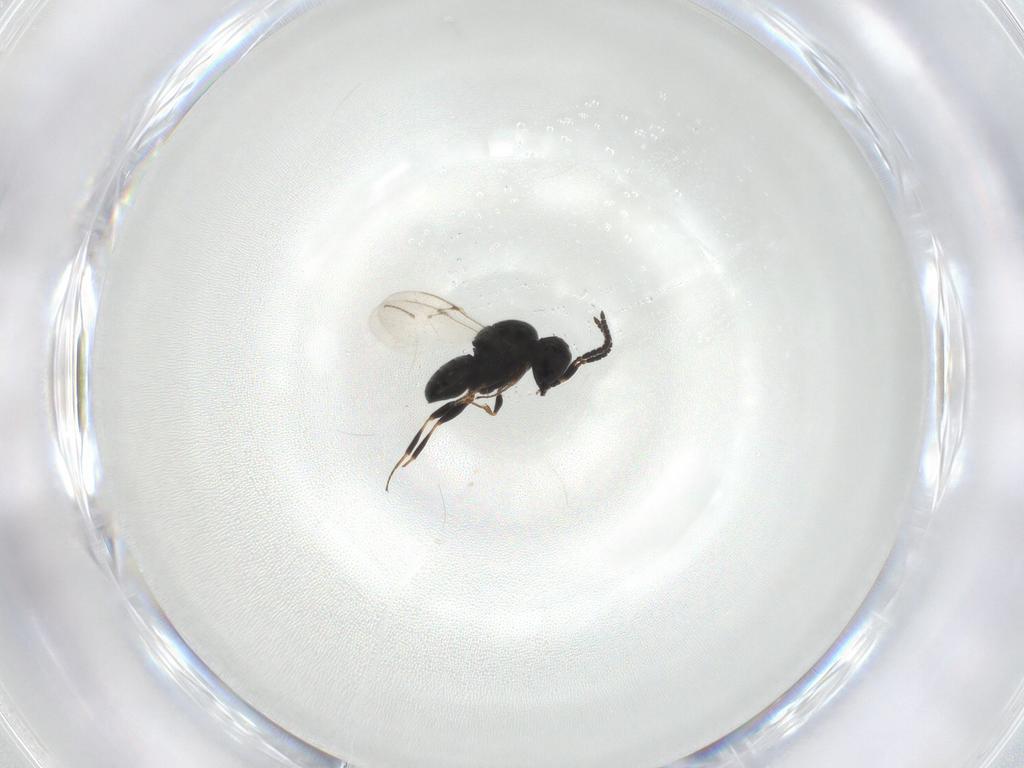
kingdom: Animalia
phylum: Arthropoda
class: Insecta
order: Hymenoptera
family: Scelionidae
